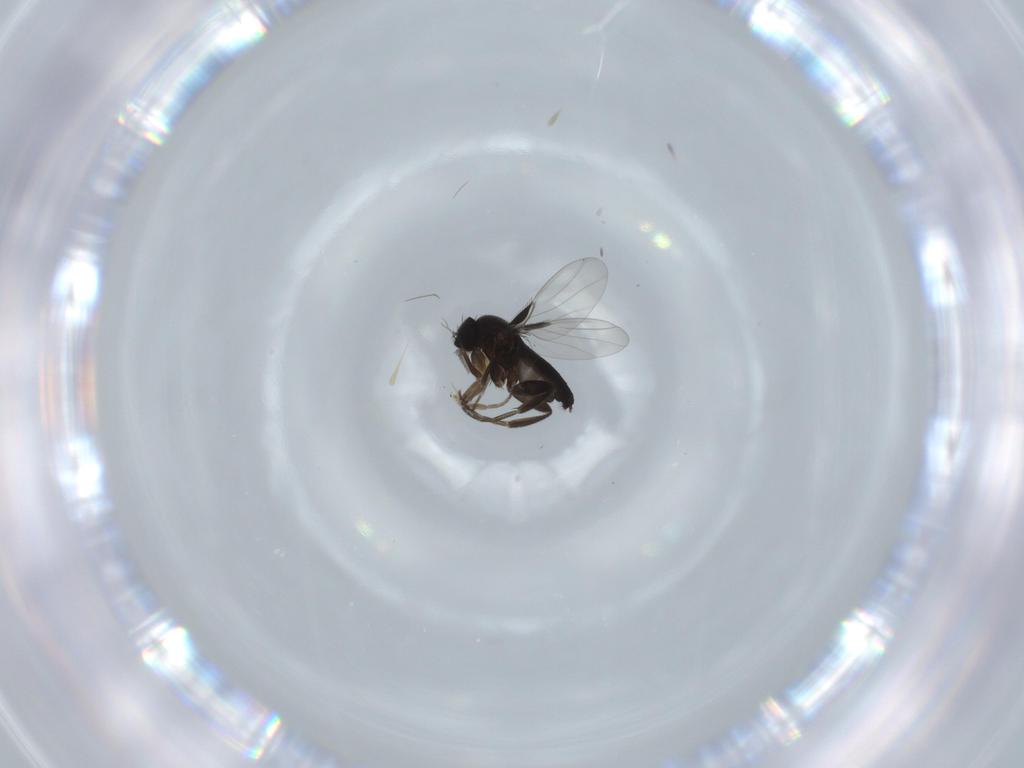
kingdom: Animalia
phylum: Arthropoda
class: Insecta
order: Diptera
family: Phoridae
